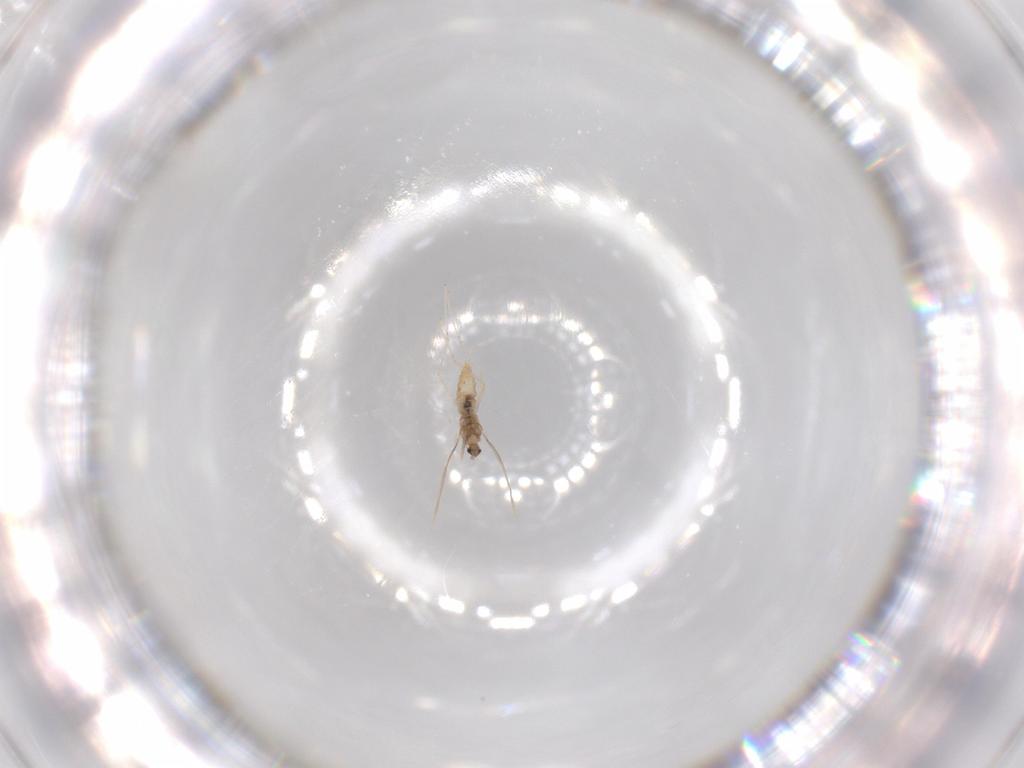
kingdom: Animalia
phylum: Arthropoda
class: Insecta
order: Diptera
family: Cecidomyiidae
